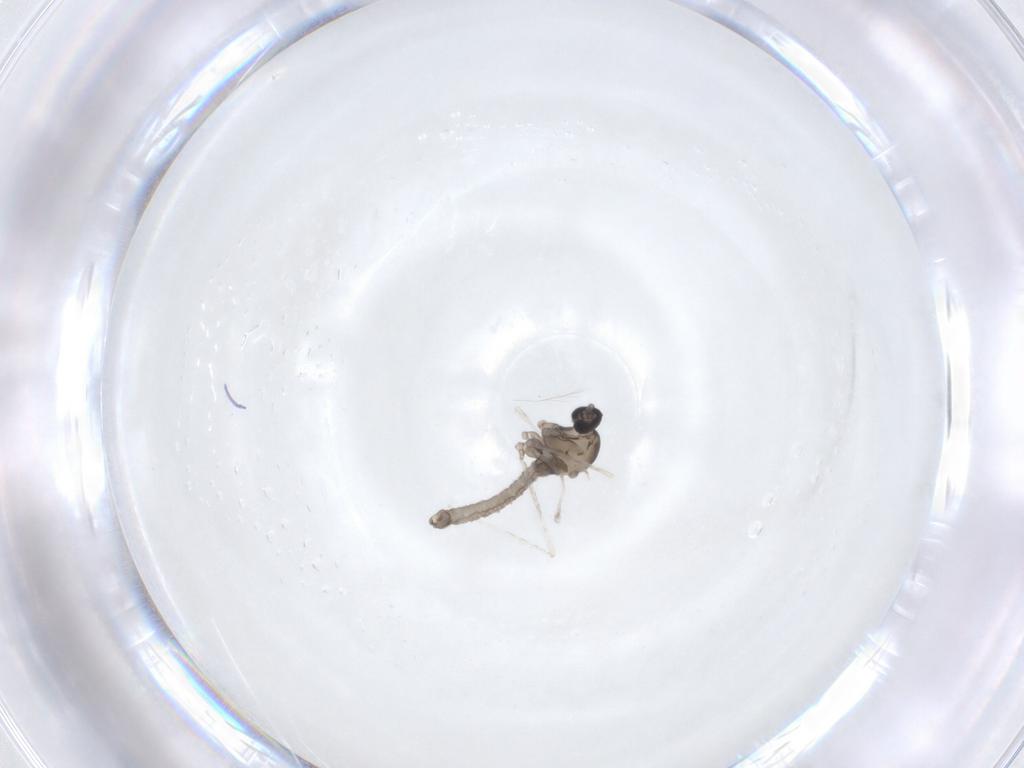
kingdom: Animalia
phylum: Arthropoda
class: Insecta
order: Diptera
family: Cecidomyiidae
